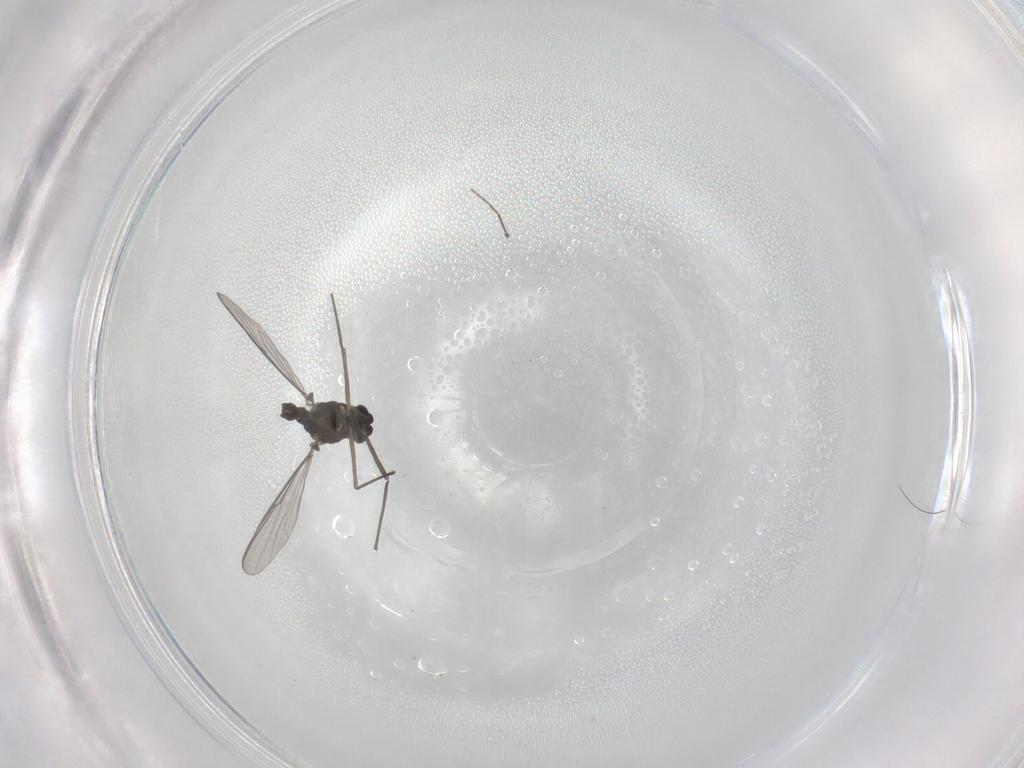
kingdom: Animalia
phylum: Arthropoda
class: Insecta
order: Diptera
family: Chironomidae
